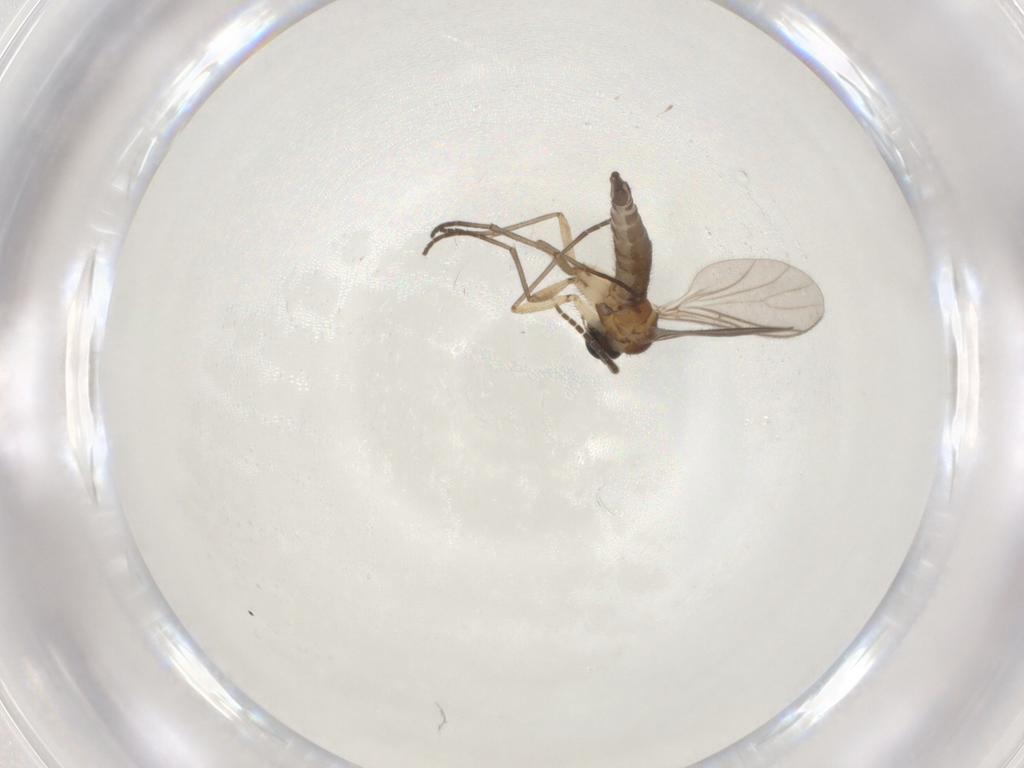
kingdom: Animalia
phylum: Arthropoda
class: Insecta
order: Diptera
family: Sciaridae
